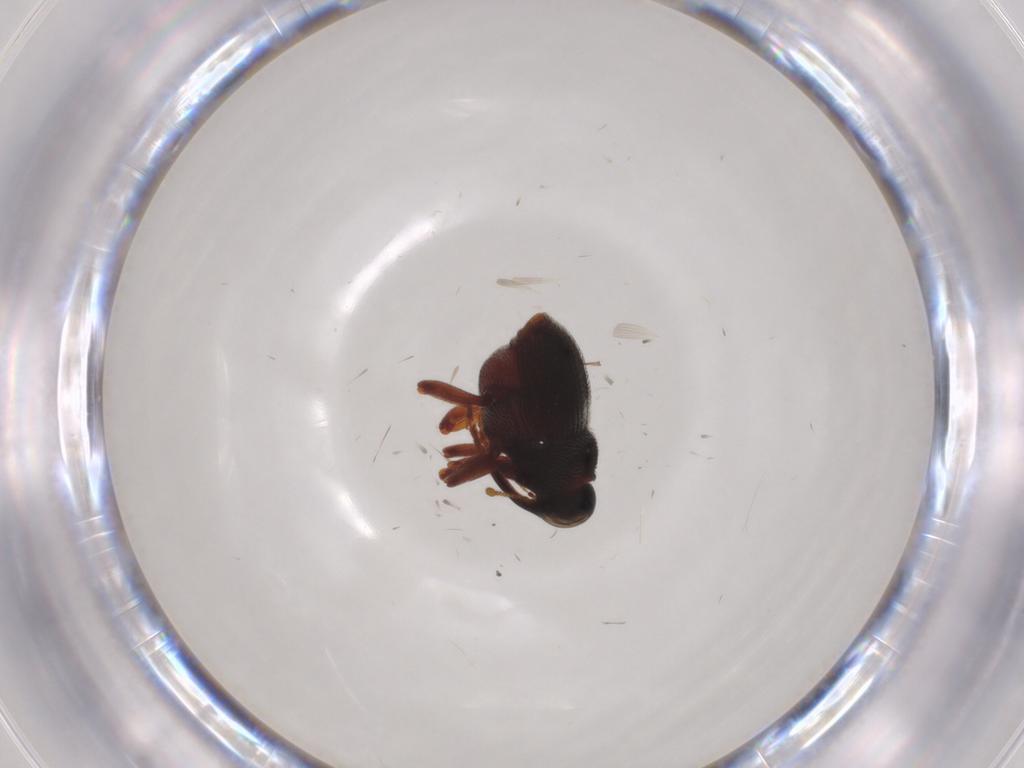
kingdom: Animalia
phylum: Arthropoda
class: Insecta
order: Coleoptera
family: Curculionidae
